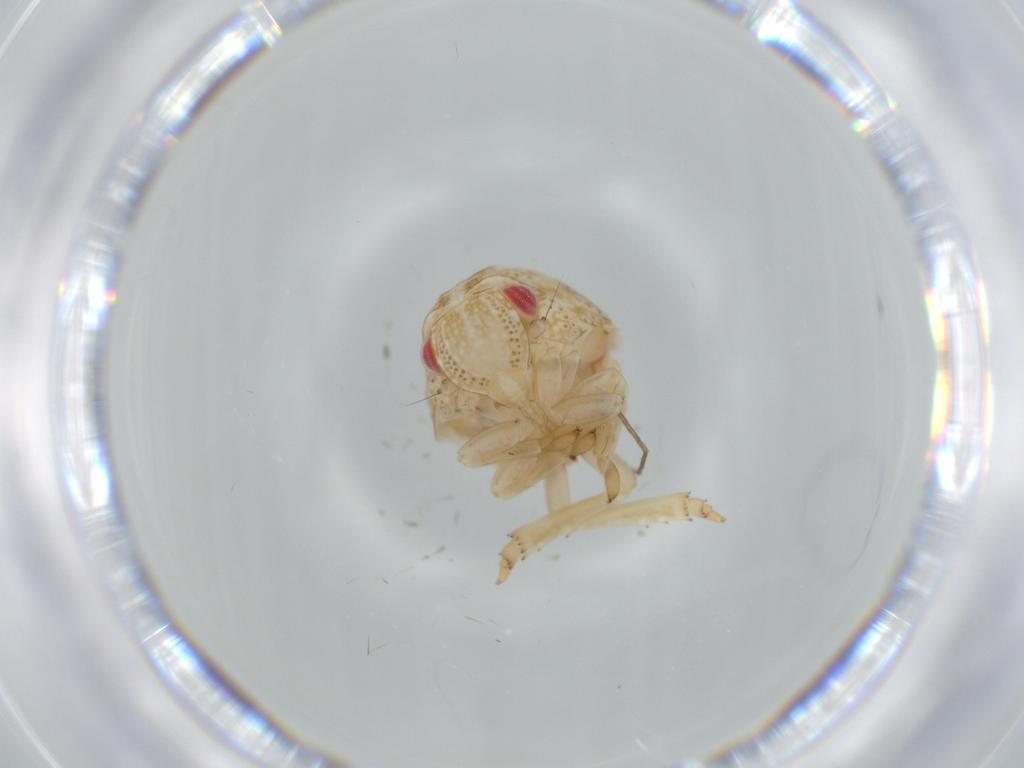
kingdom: Animalia
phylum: Arthropoda
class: Insecta
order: Hemiptera
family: Acanaloniidae
